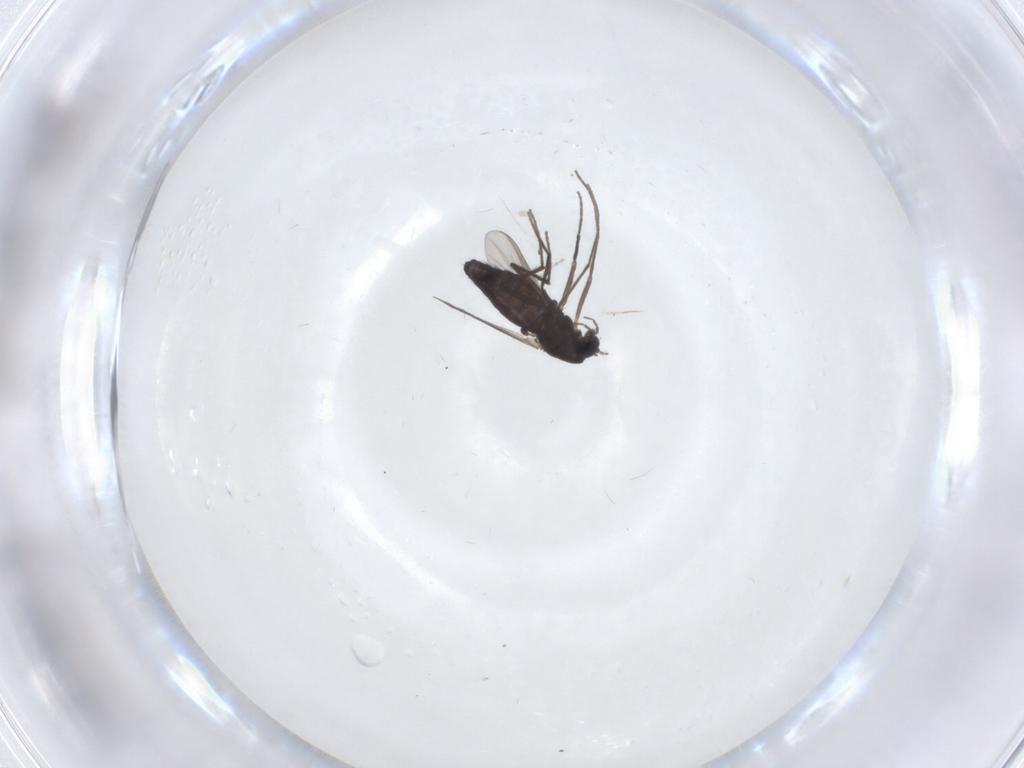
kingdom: Animalia
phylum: Arthropoda
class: Insecta
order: Diptera
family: Chironomidae
